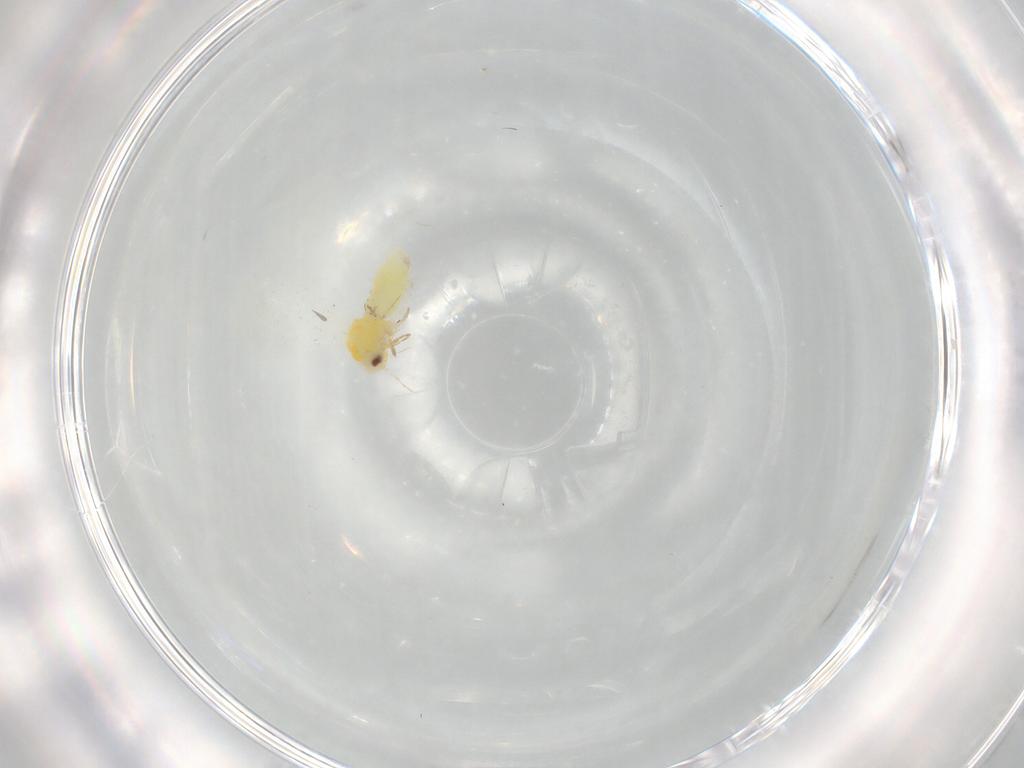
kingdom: Animalia
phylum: Arthropoda
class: Insecta
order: Hemiptera
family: Aleyrodidae
